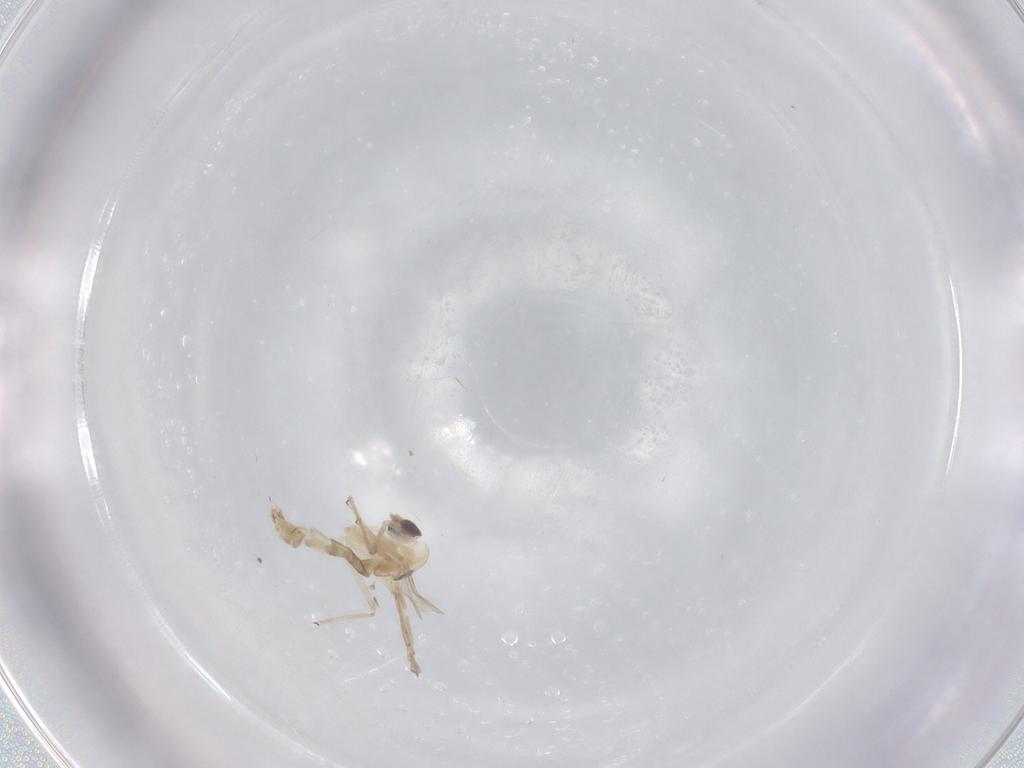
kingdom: Animalia
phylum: Arthropoda
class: Insecta
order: Diptera
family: Chironomidae
